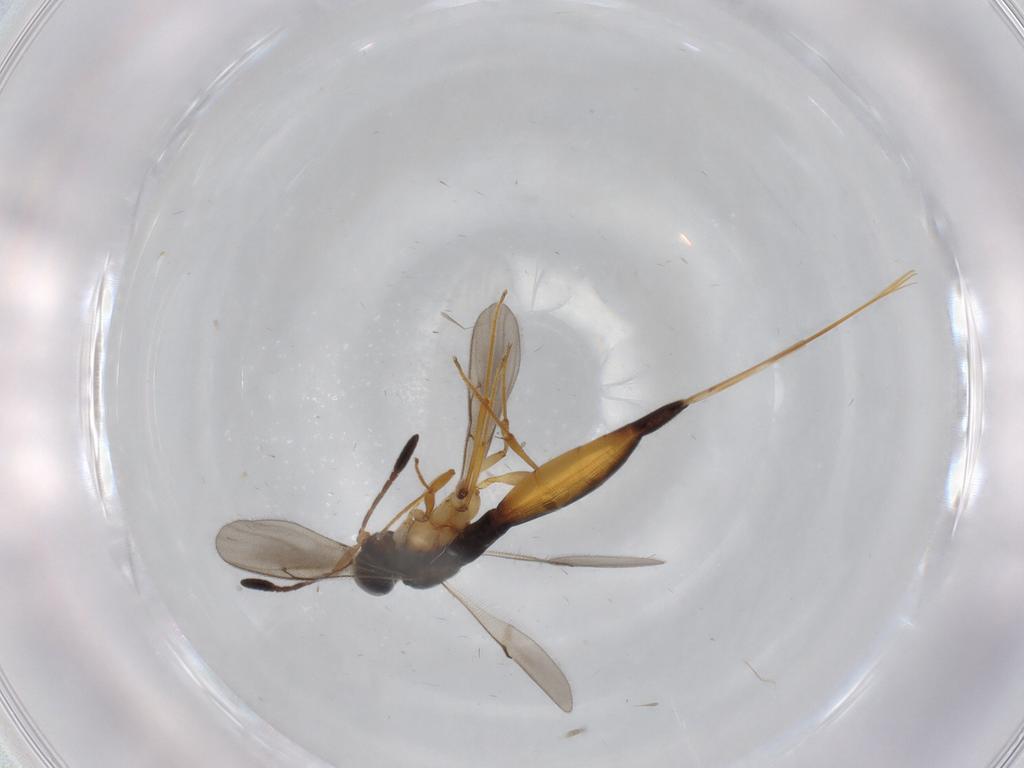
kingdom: Animalia
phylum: Arthropoda
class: Insecta
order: Hymenoptera
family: Scelionidae
